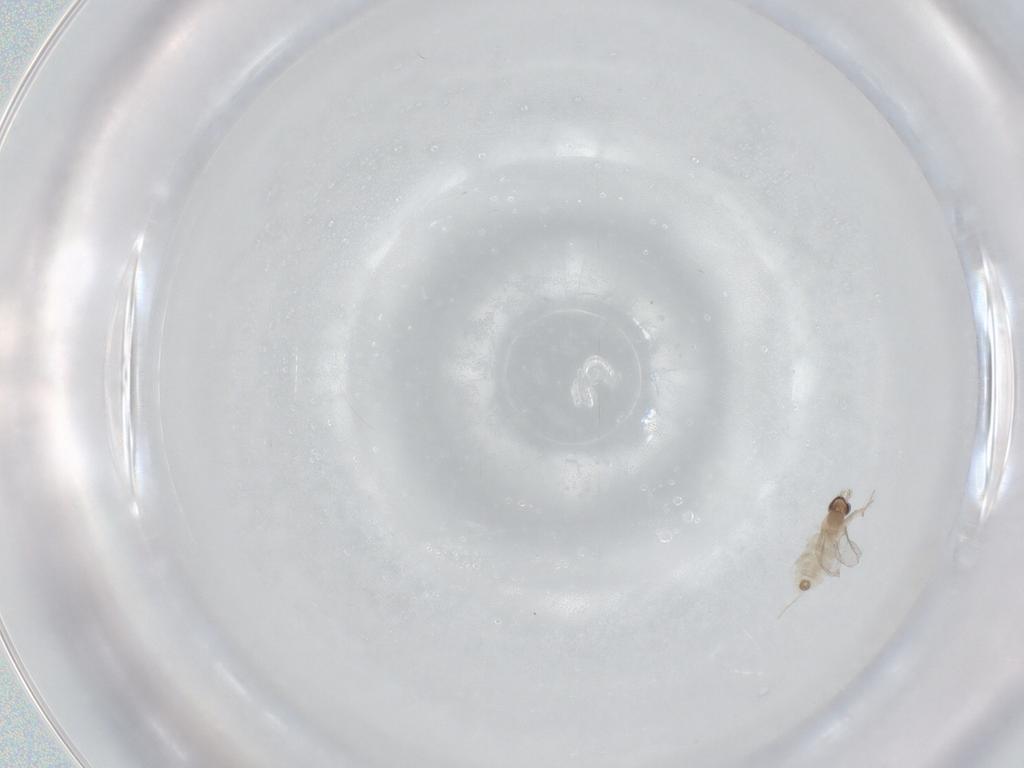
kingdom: Animalia
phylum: Arthropoda
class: Insecta
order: Diptera
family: Cecidomyiidae
